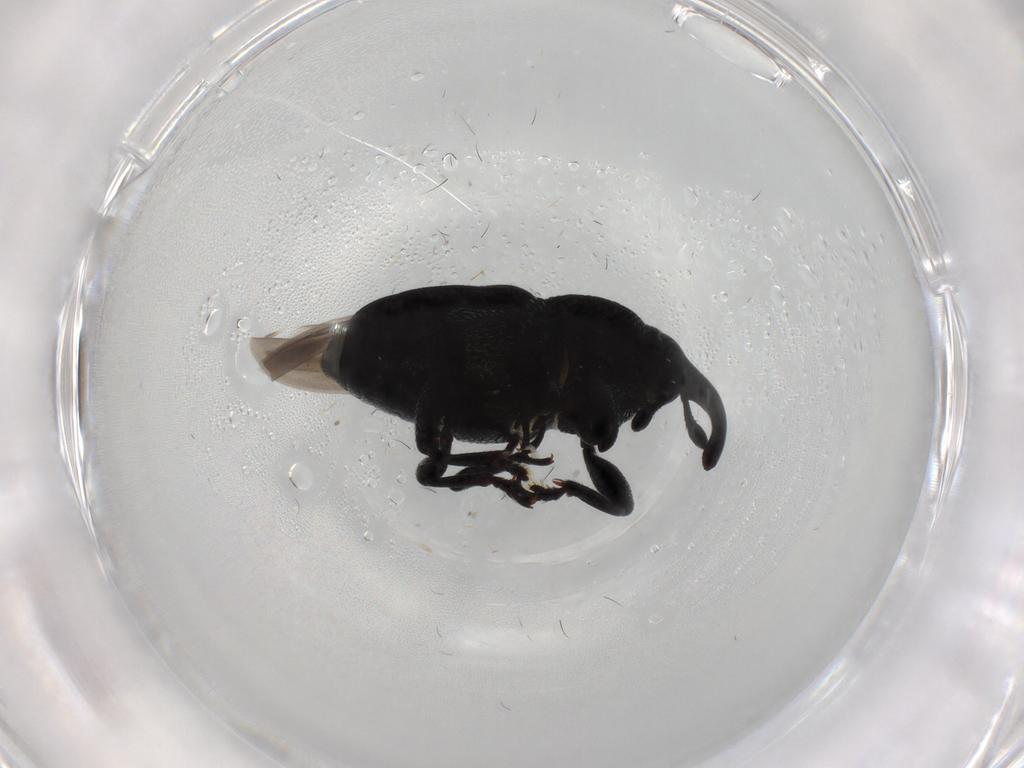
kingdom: Animalia
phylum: Arthropoda
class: Insecta
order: Coleoptera
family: Curculionidae
